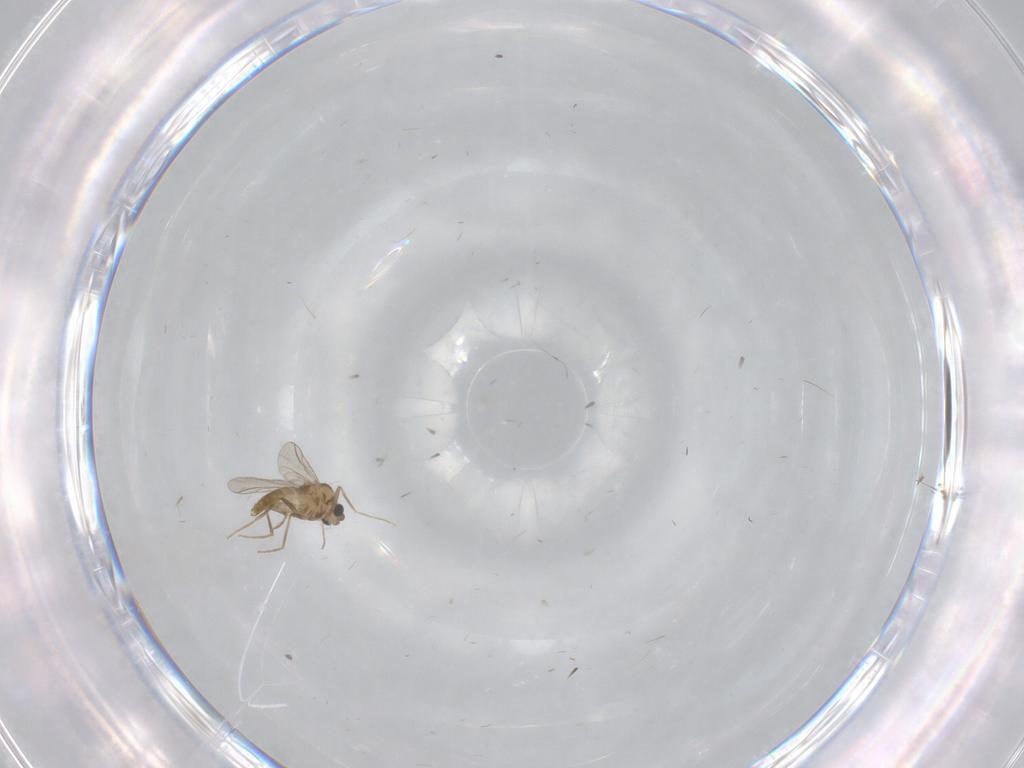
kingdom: Animalia
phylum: Arthropoda
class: Insecta
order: Diptera
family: Chironomidae
